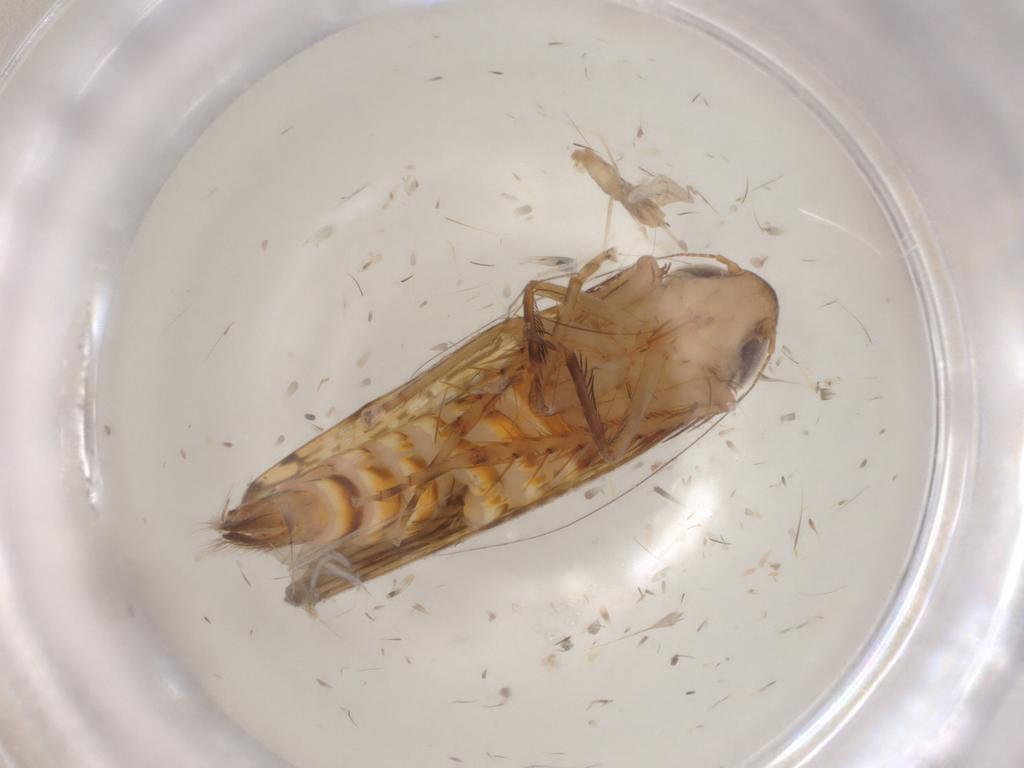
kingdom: Animalia
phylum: Arthropoda
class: Insecta
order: Hemiptera
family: Cicadellidae
